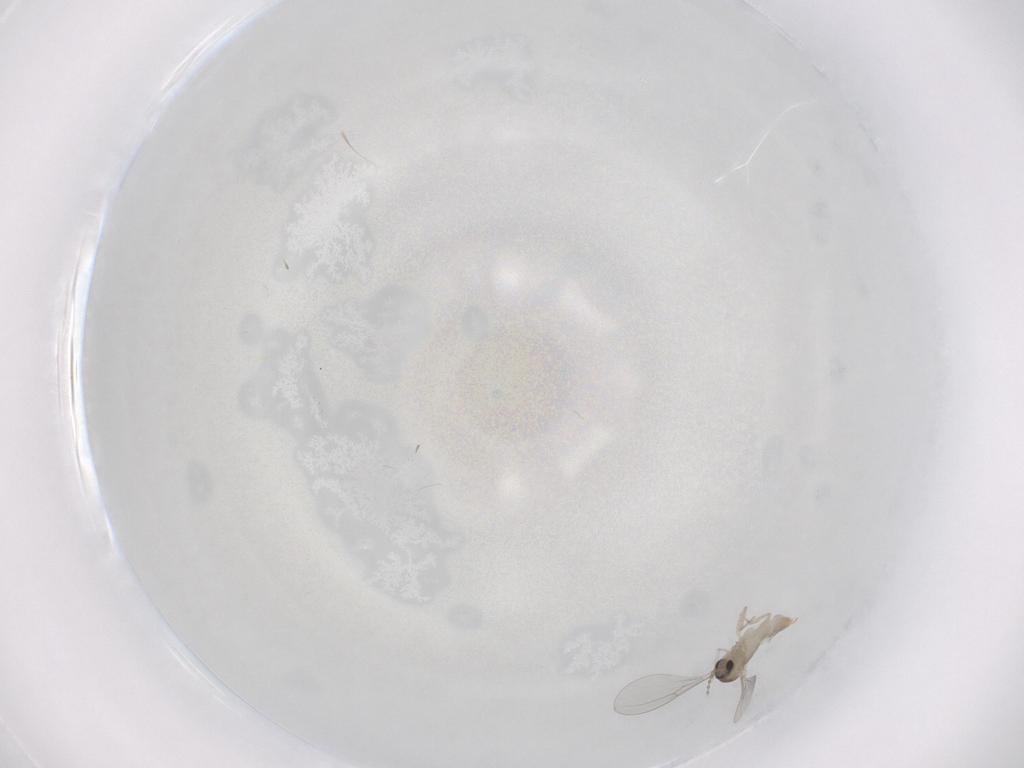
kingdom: Animalia
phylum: Arthropoda
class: Insecta
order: Diptera
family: Cecidomyiidae
